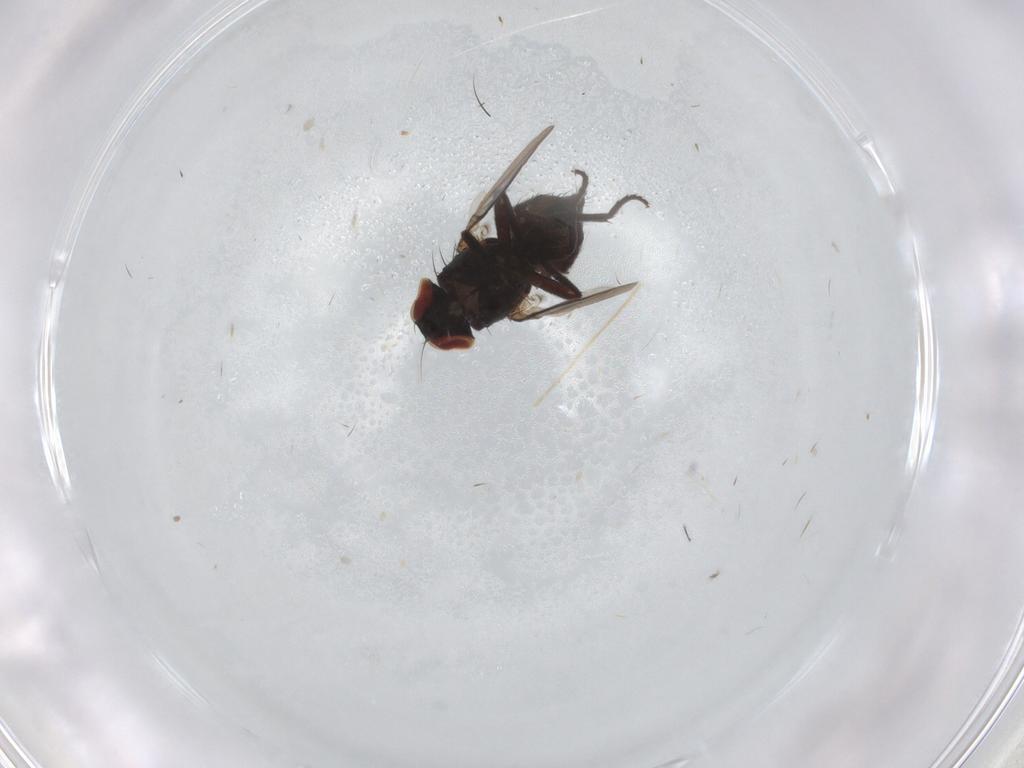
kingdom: Animalia
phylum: Arthropoda
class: Insecta
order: Diptera
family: Agromyzidae
